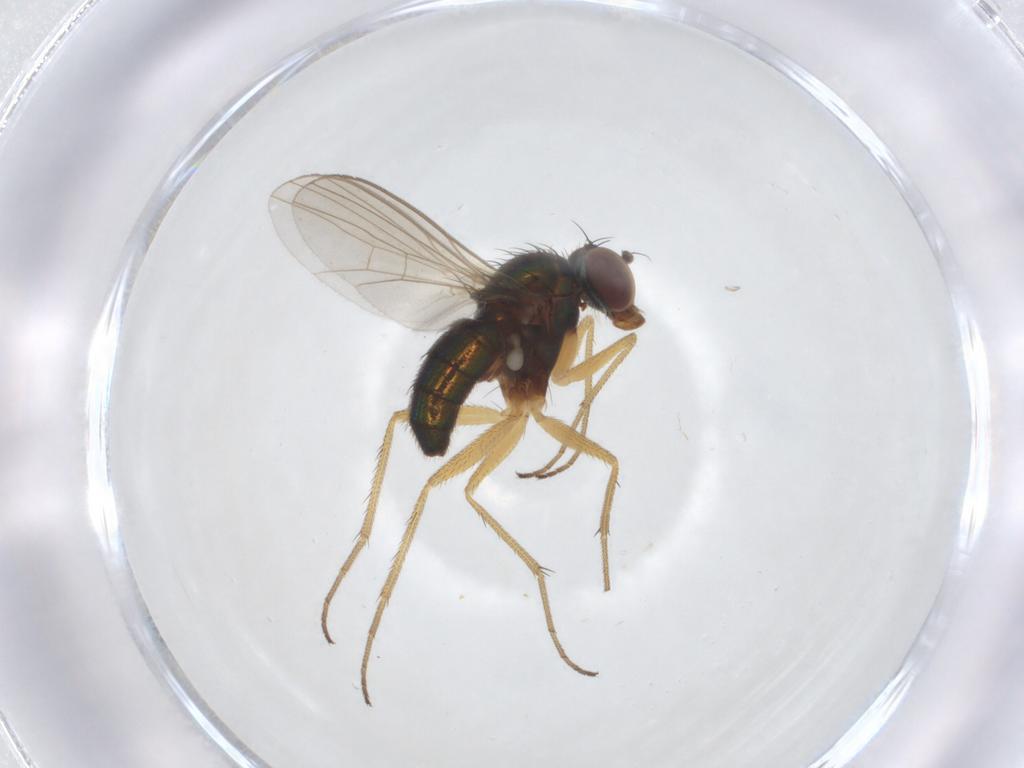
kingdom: Animalia
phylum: Arthropoda
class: Insecta
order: Diptera
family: Dolichopodidae
